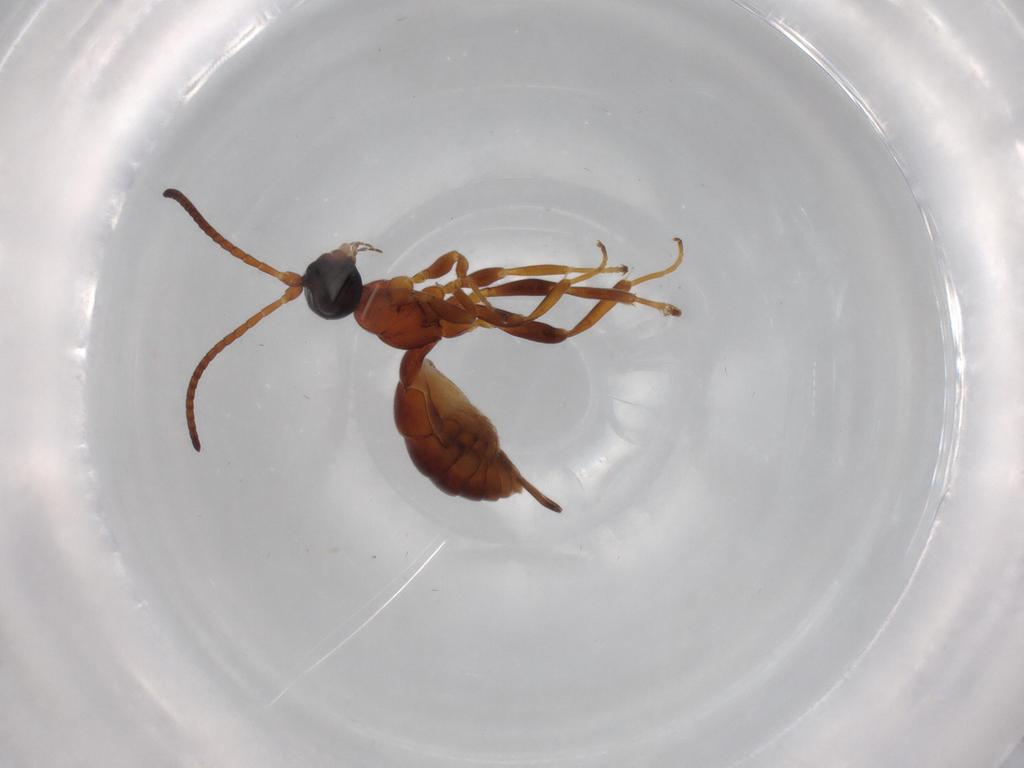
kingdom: Animalia
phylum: Arthropoda
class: Insecta
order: Hymenoptera
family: Ichneumonidae
